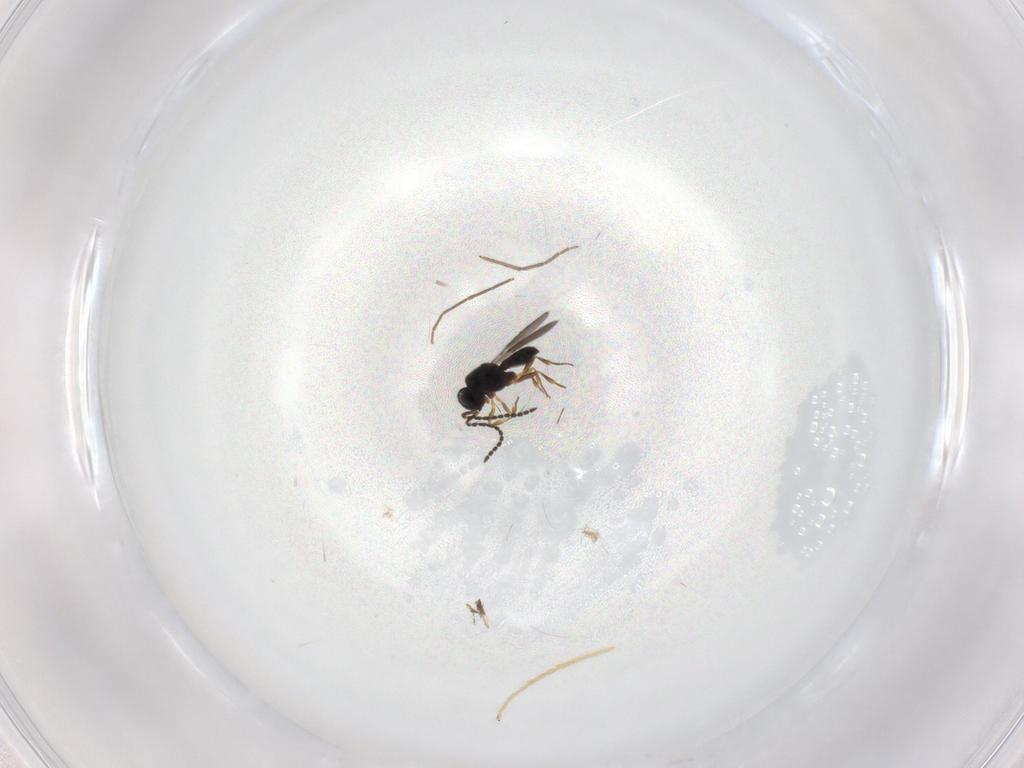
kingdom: Animalia
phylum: Arthropoda
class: Insecta
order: Hymenoptera
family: Scelionidae
